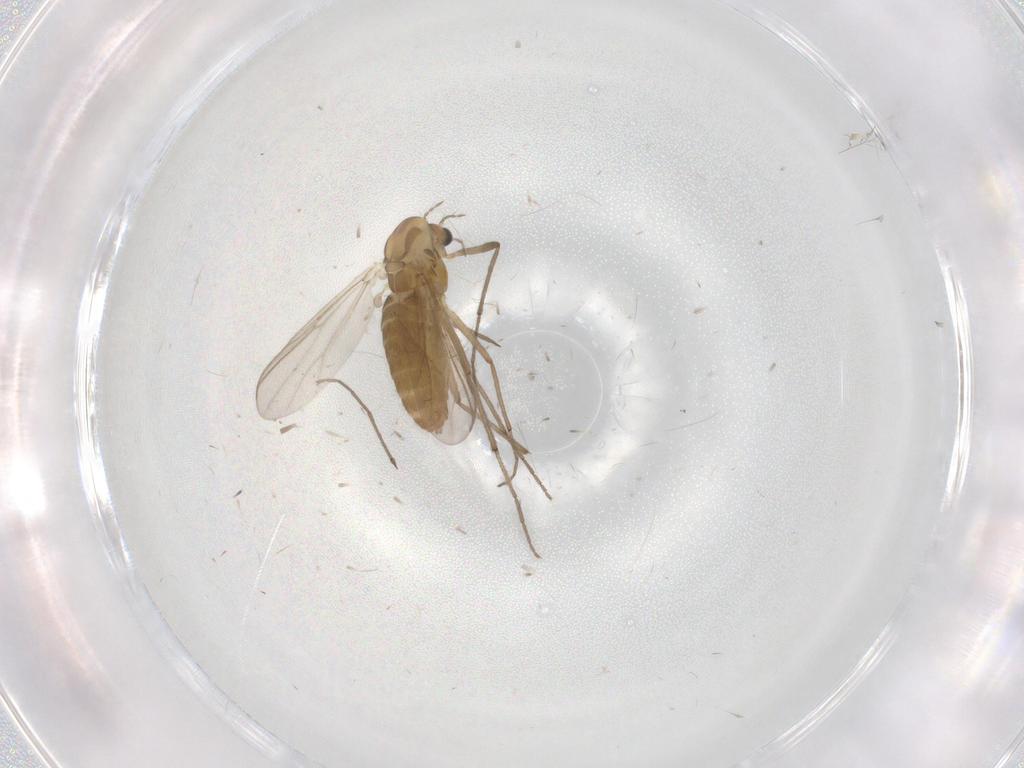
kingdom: Animalia
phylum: Arthropoda
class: Insecta
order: Diptera
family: Chironomidae
